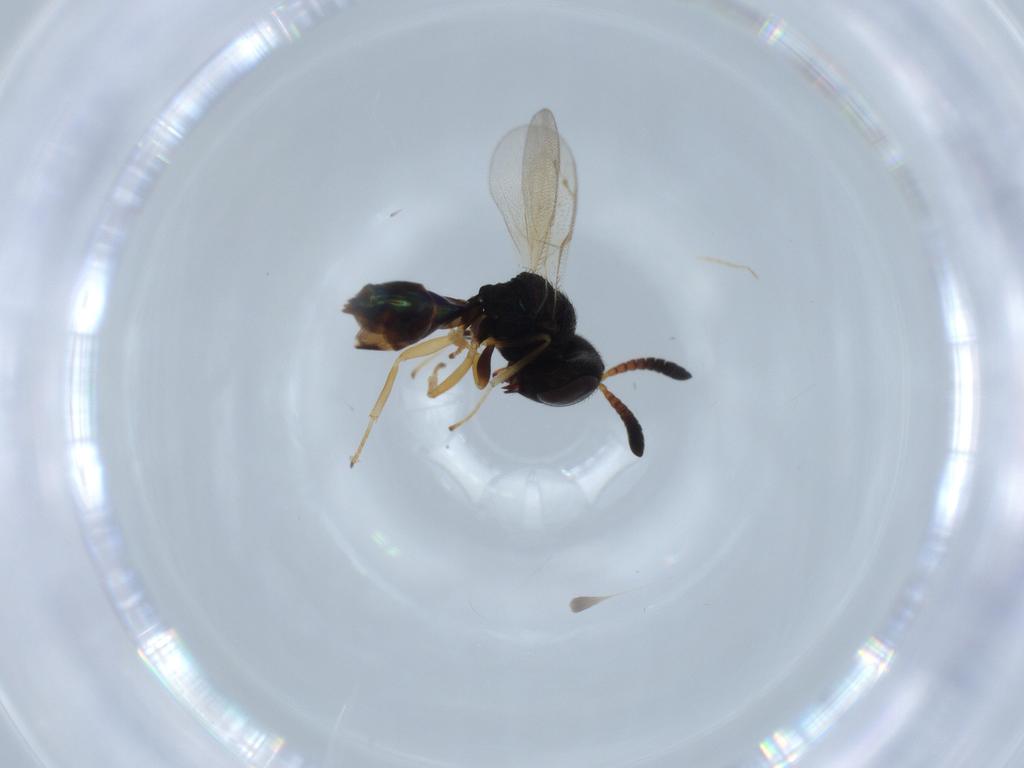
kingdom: Animalia
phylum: Arthropoda
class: Insecta
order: Hymenoptera
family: Pteromalidae
